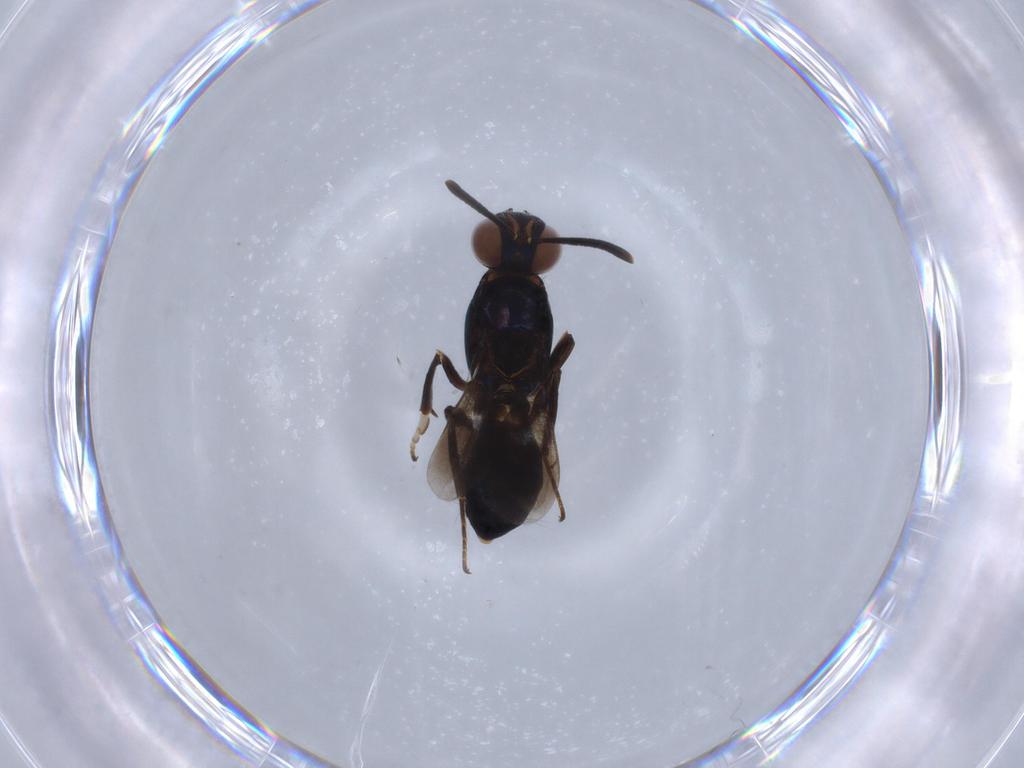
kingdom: Animalia
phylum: Arthropoda
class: Insecta
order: Hymenoptera
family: Eupelmidae
